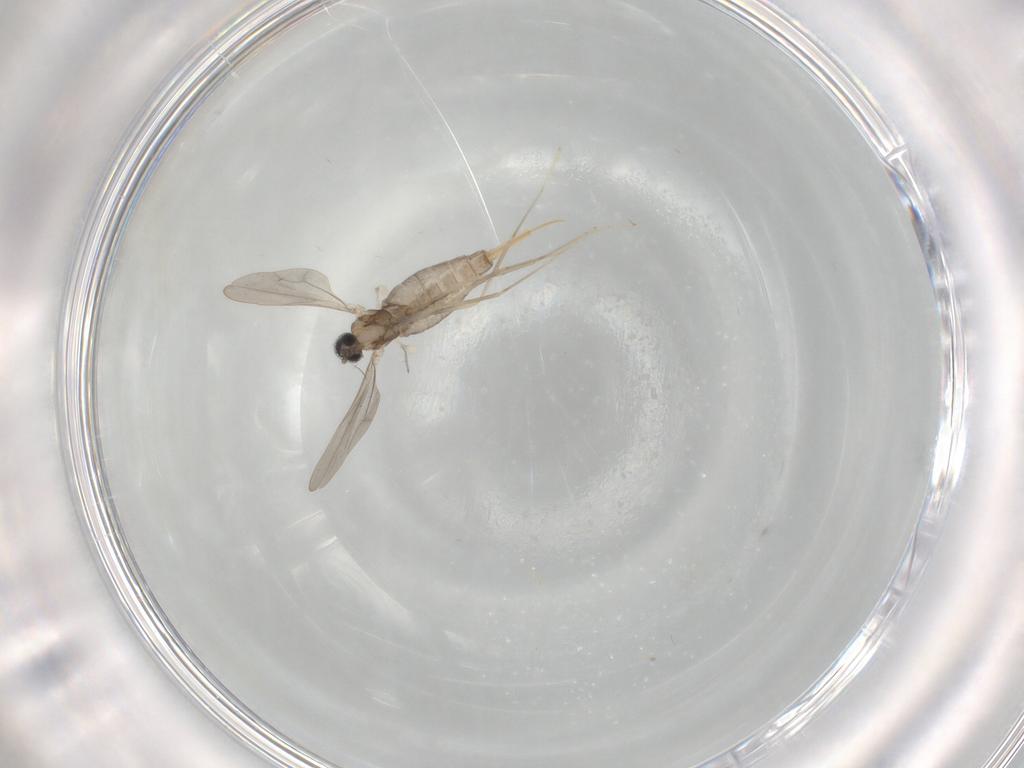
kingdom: Animalia
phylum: Arthropoda
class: Insecta
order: Diptera
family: Cecidomyiidae
